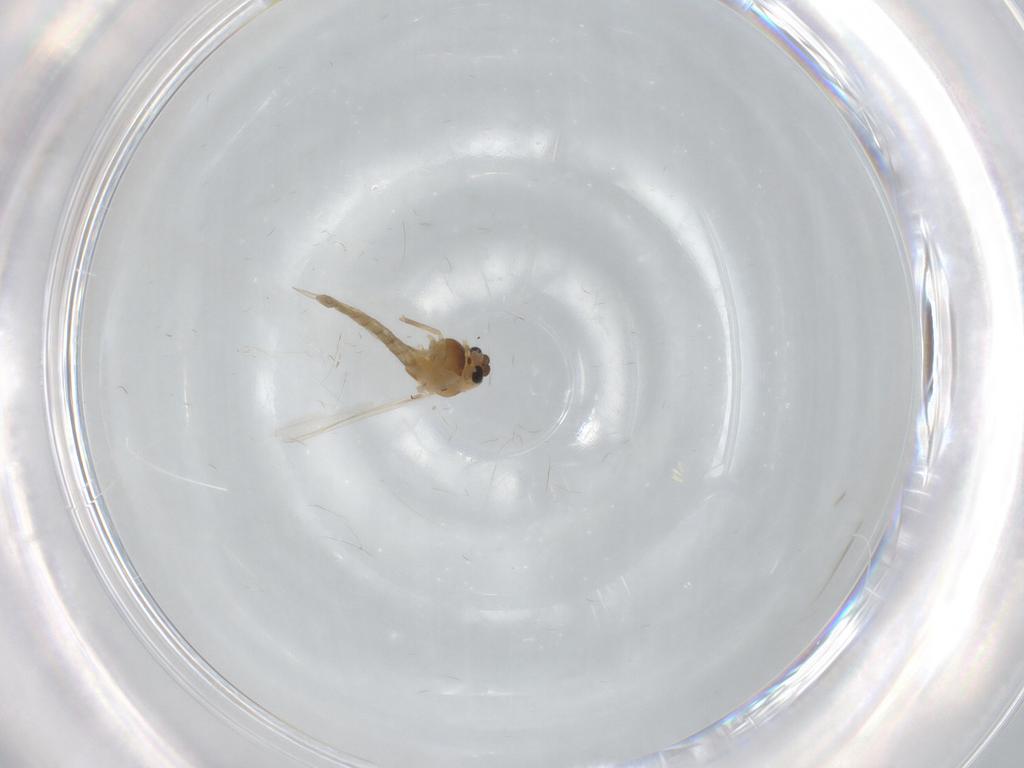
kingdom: Animalia
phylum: Arthropoda
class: Insecta
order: Diptera
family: Chironomidae
